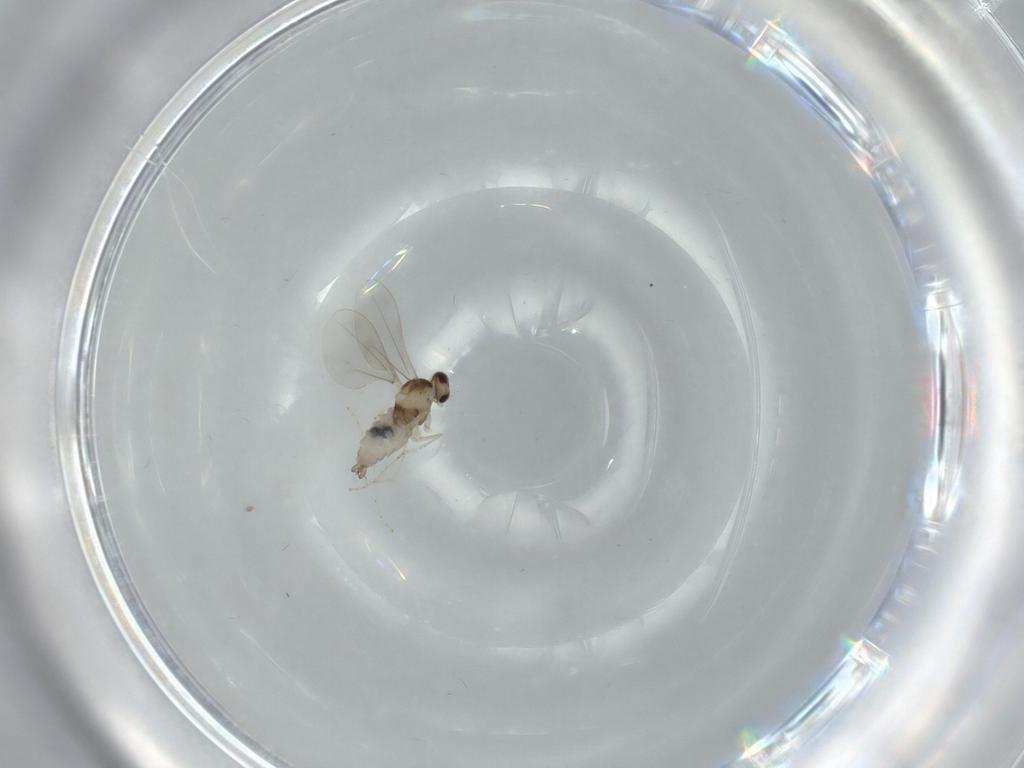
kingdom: Animalia
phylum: Arthropoda
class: Insecta
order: Diptera
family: Cecidomyiidae
